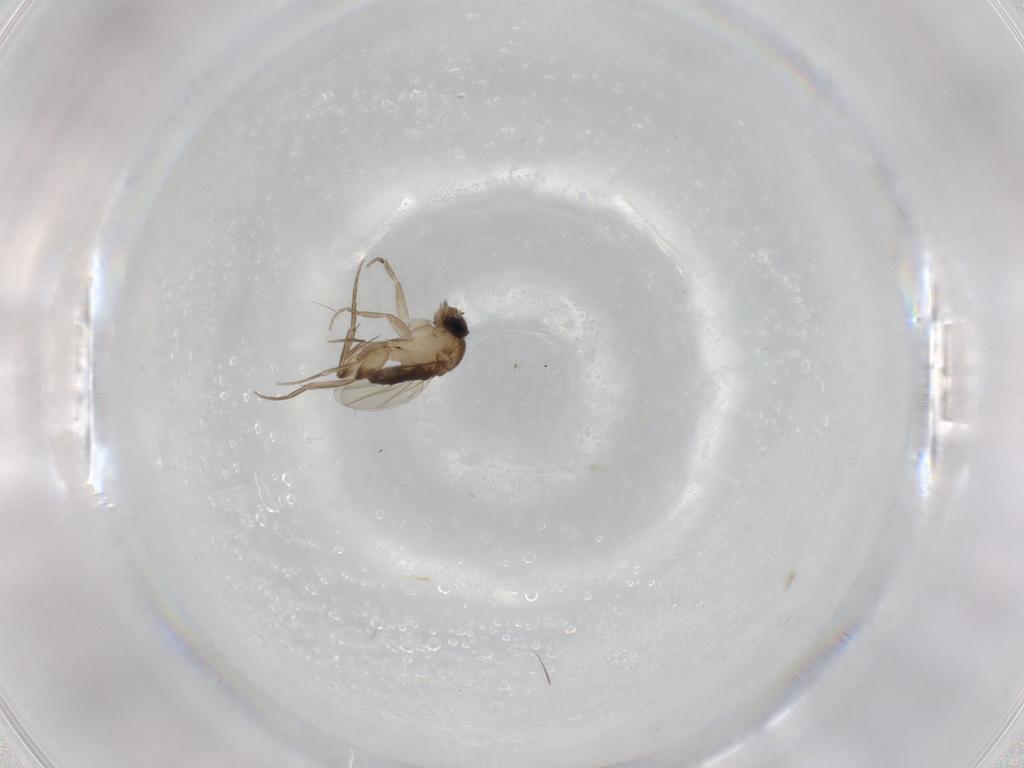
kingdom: Animalia
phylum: Arthropoda
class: Insecta
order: Diptera
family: Phoridae
